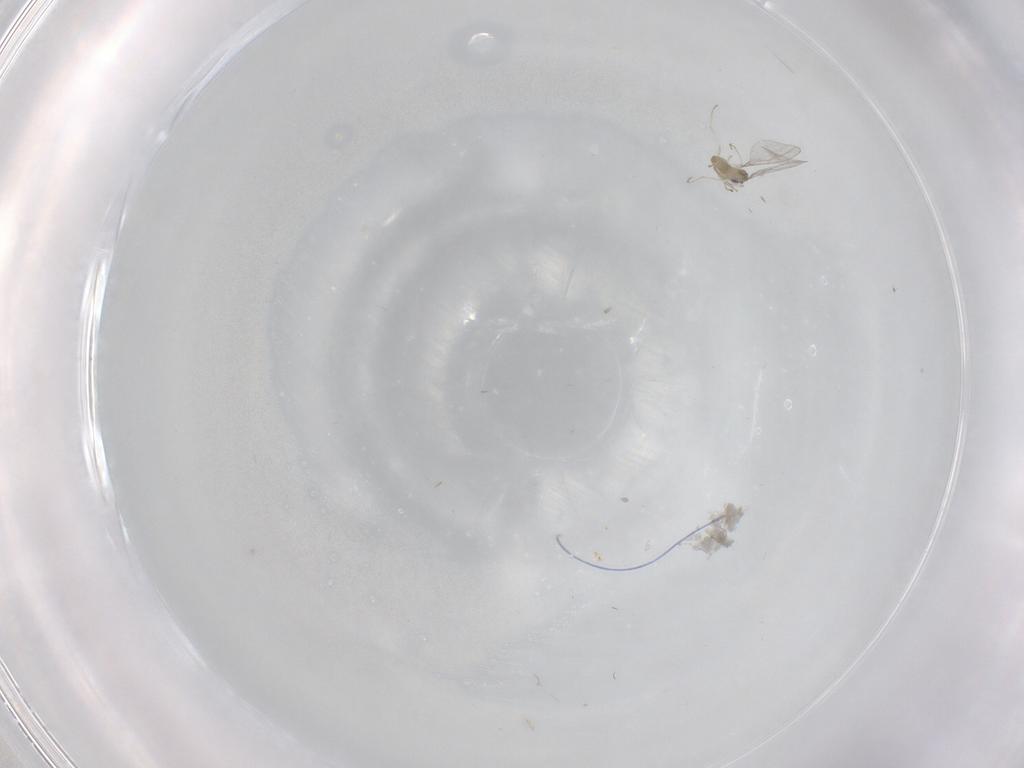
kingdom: Animalia
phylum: Arthropoda
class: Insecta
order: Diptera
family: Cecidomyiidae
